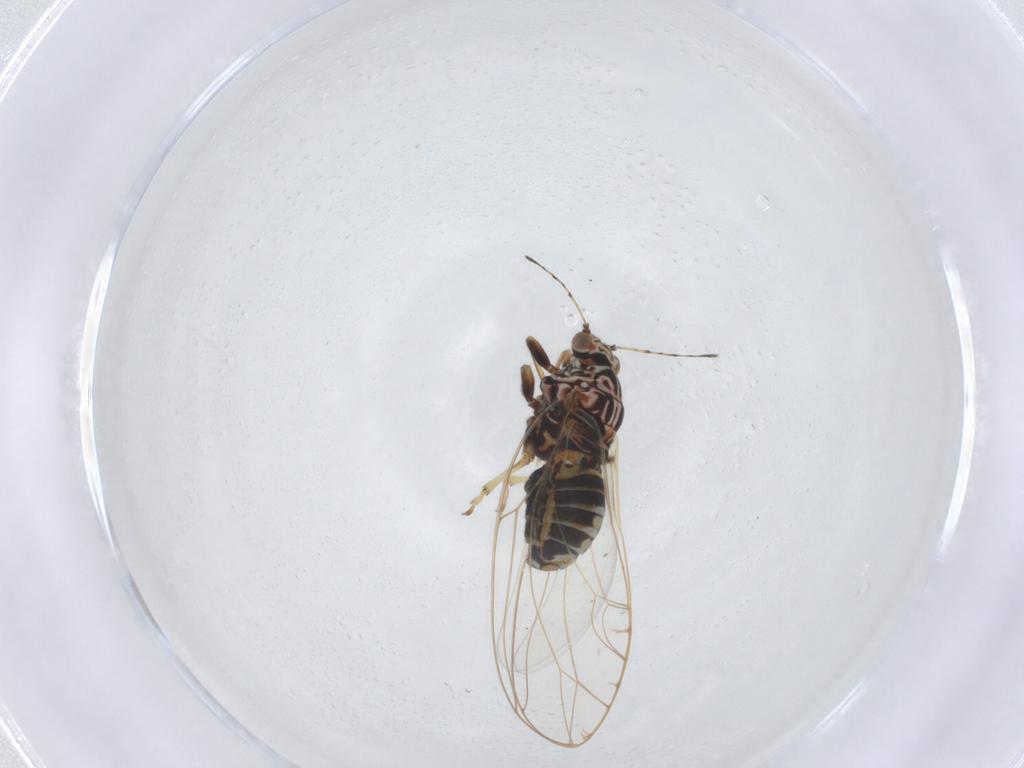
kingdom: Animalia
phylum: Arthropoda
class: Insecta
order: Hemiptera
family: Triozidae
